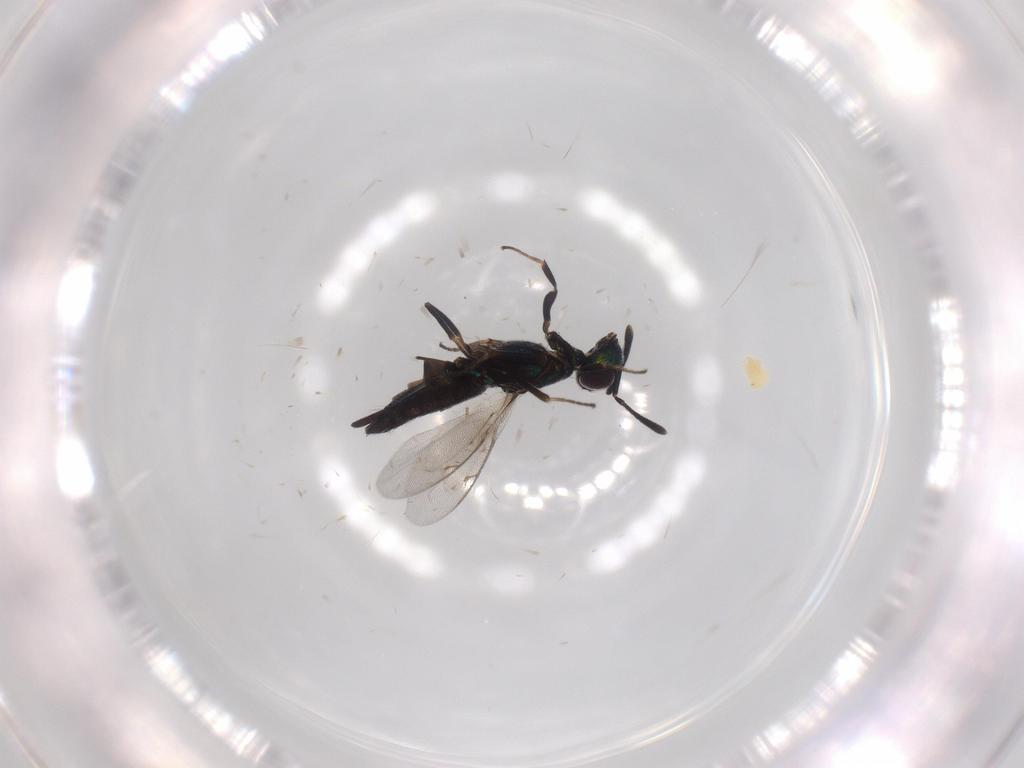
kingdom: Animalia
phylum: Arthropoda
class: Insecta
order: Hymenoptera
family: Eupelmidae
